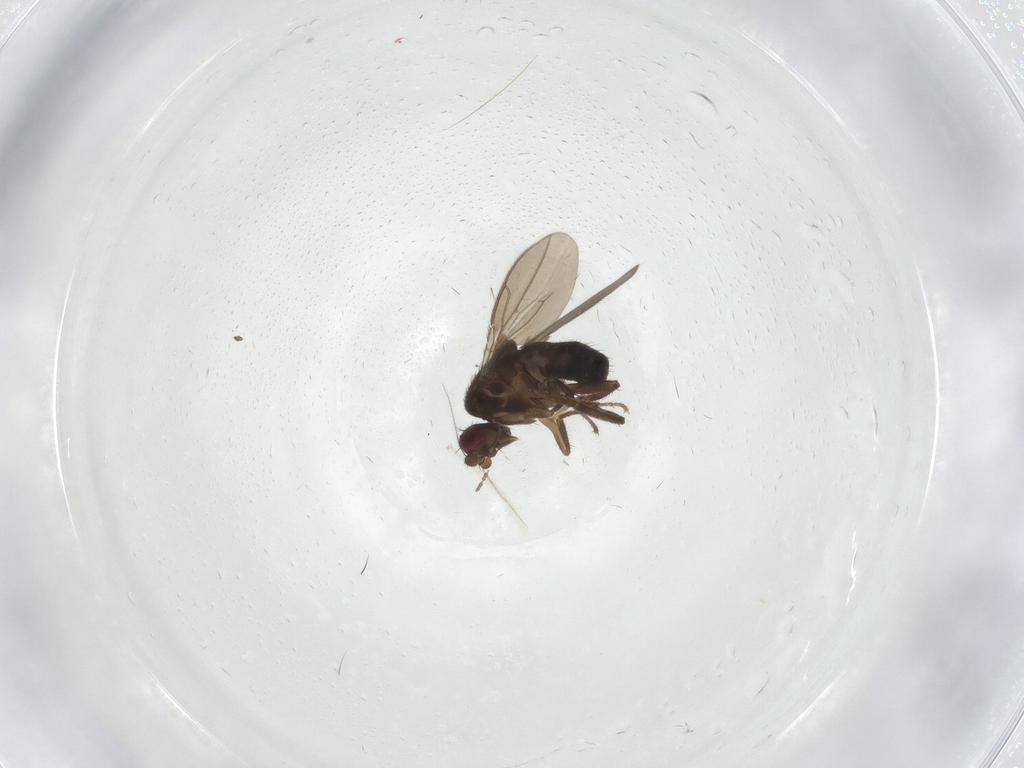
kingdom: Animalia
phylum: Arthropoda
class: Insecta
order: Diptera
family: Sphaeroceridae
